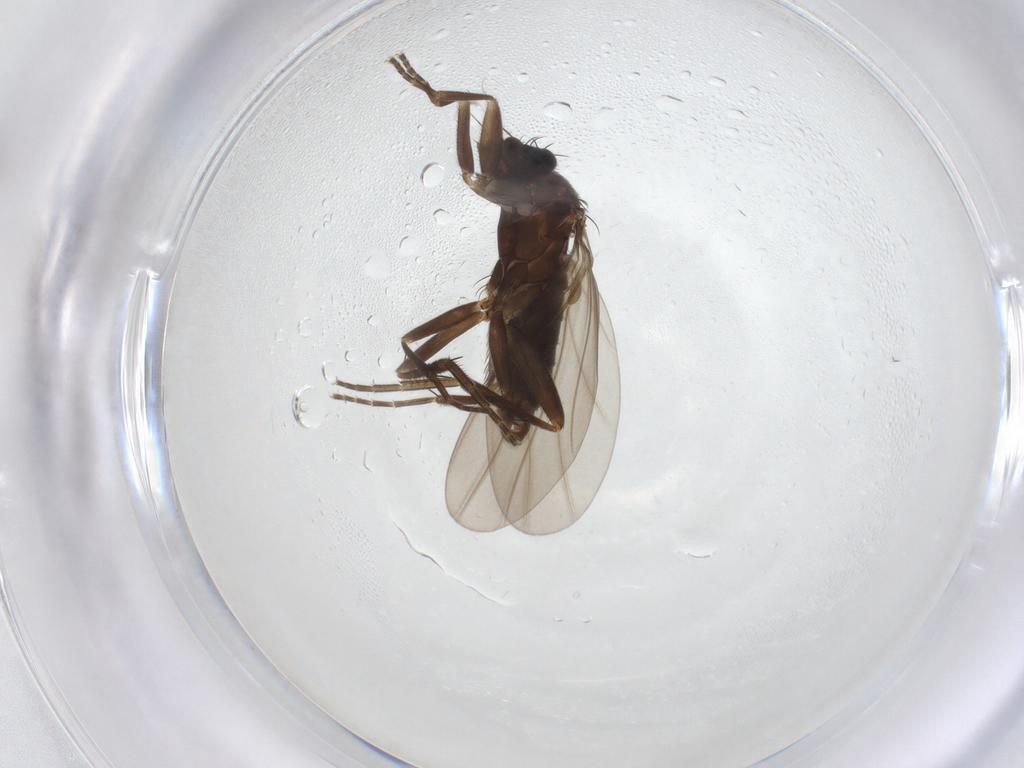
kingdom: Animalia
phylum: Arthropoda
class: Insecta
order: Diptera
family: Phoridae
